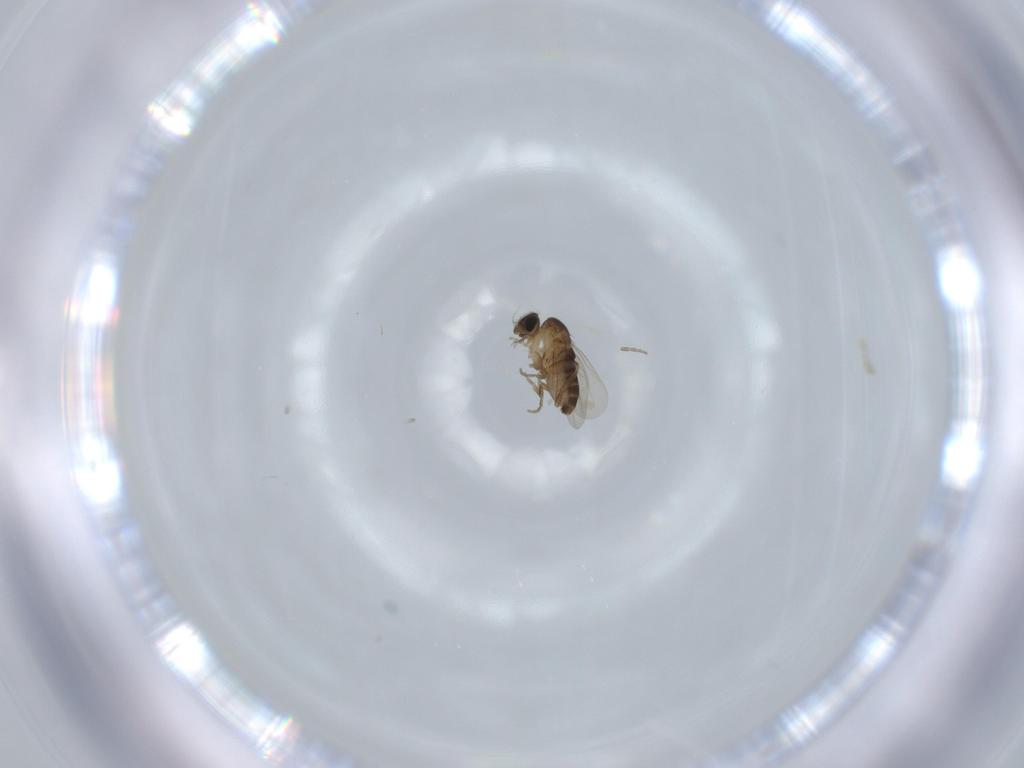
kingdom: Animalia
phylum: Arthropoda
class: Insecta
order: Diptera
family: Phoridae
